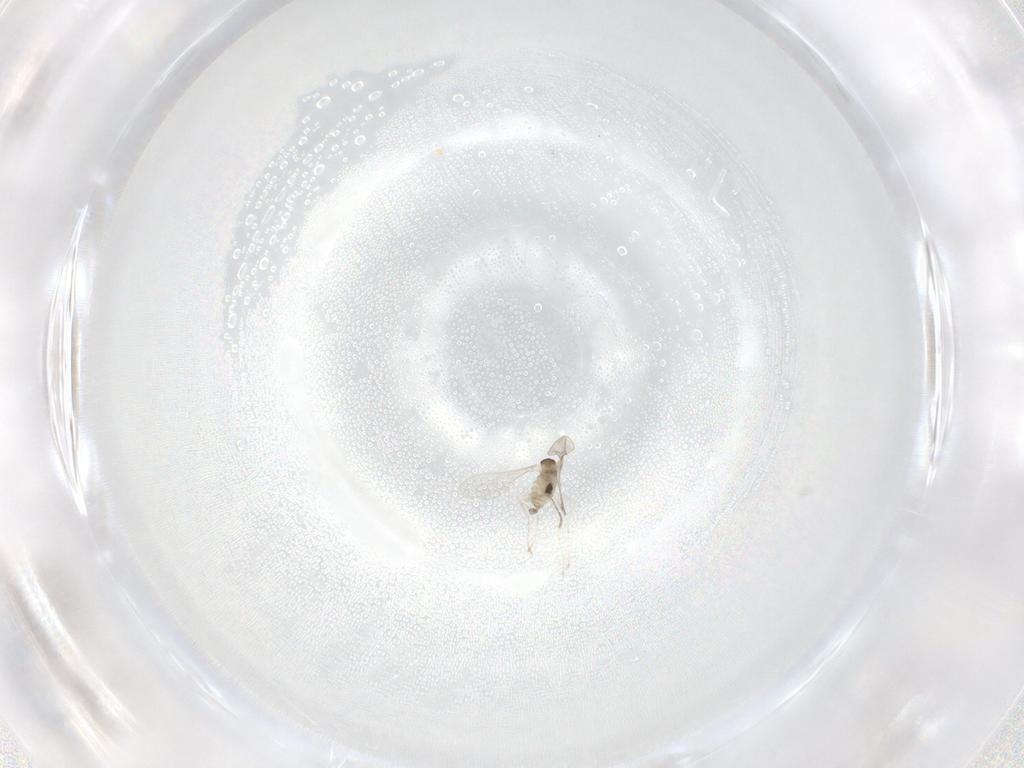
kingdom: Animalia
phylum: Arthropoda
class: Insecta
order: Diptera
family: Cecidomyiidae
